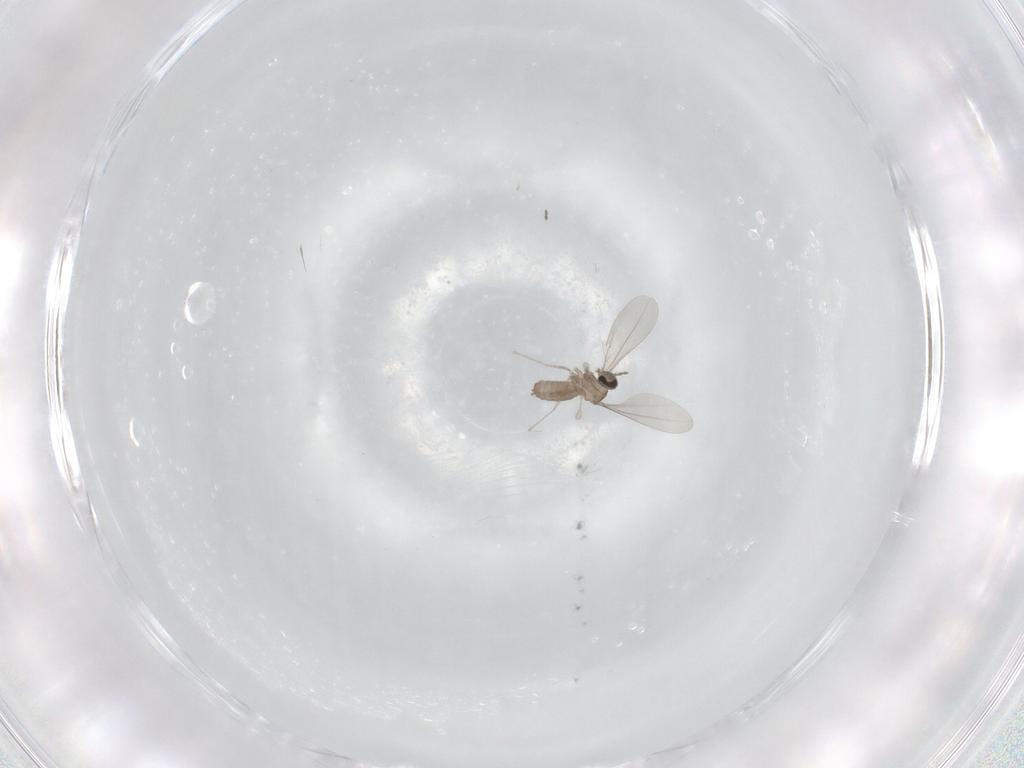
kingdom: Animalia
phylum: Arthropoda
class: Insecta
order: Diptera
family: Cecidomyiidae
